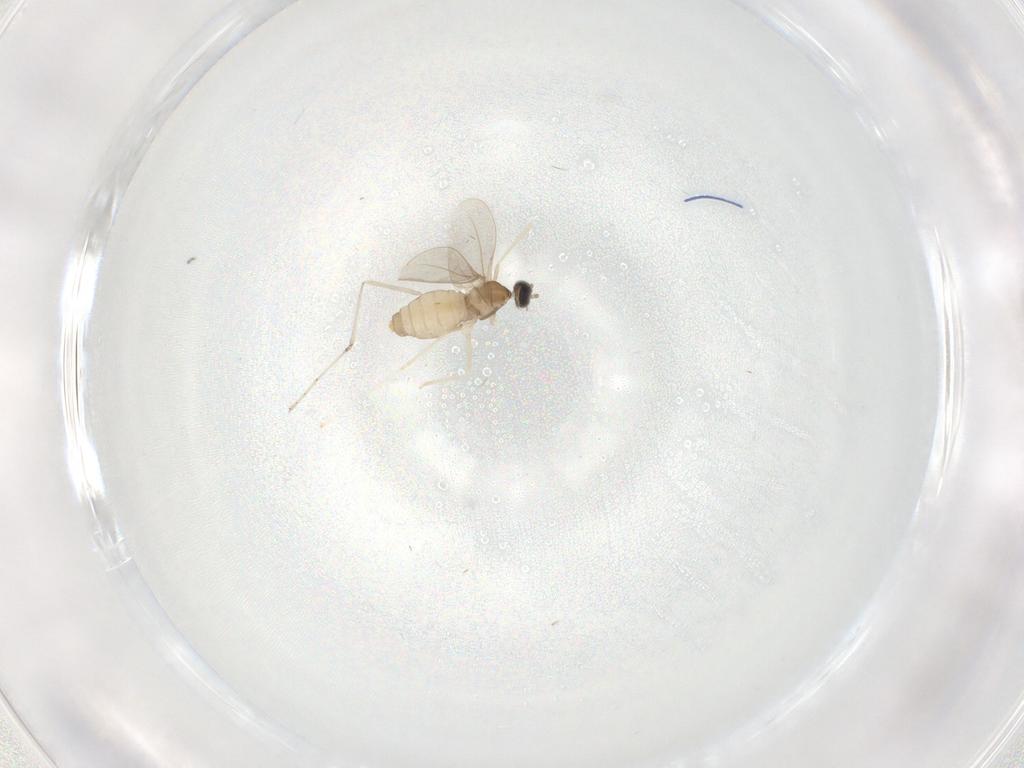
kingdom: Animalia
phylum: Arthropoda
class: Insecta
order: Diptera
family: Cecidomyiidae
